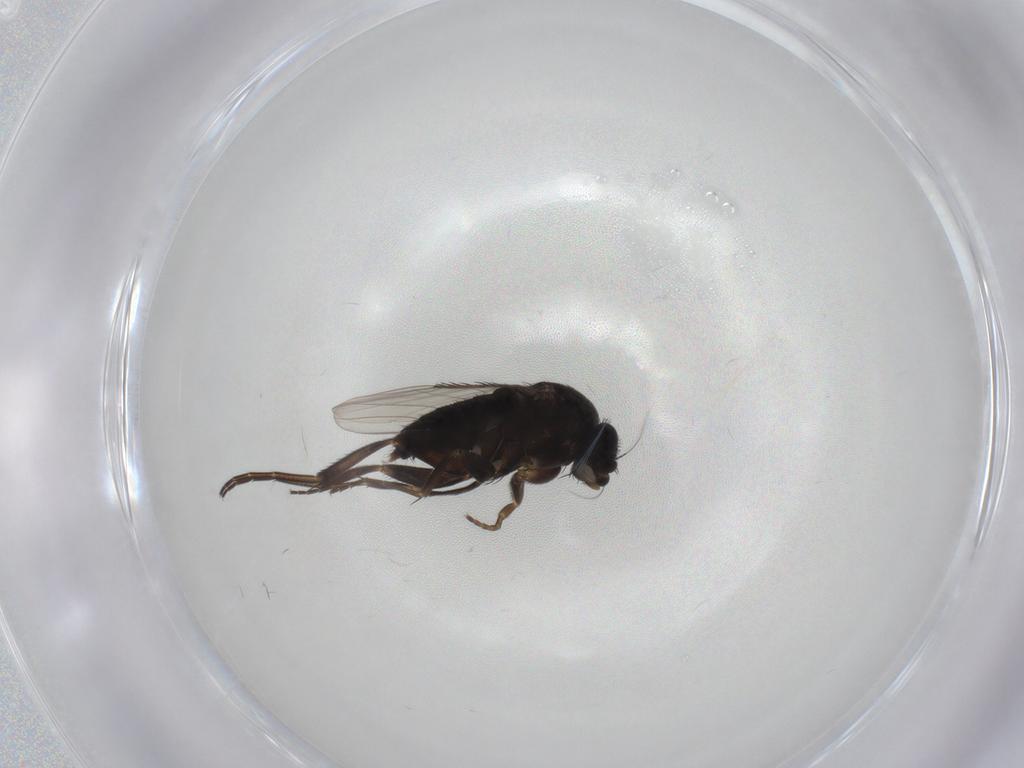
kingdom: Animalia
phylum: Arthropoda
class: Insecta
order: Diptera
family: Phoridae
